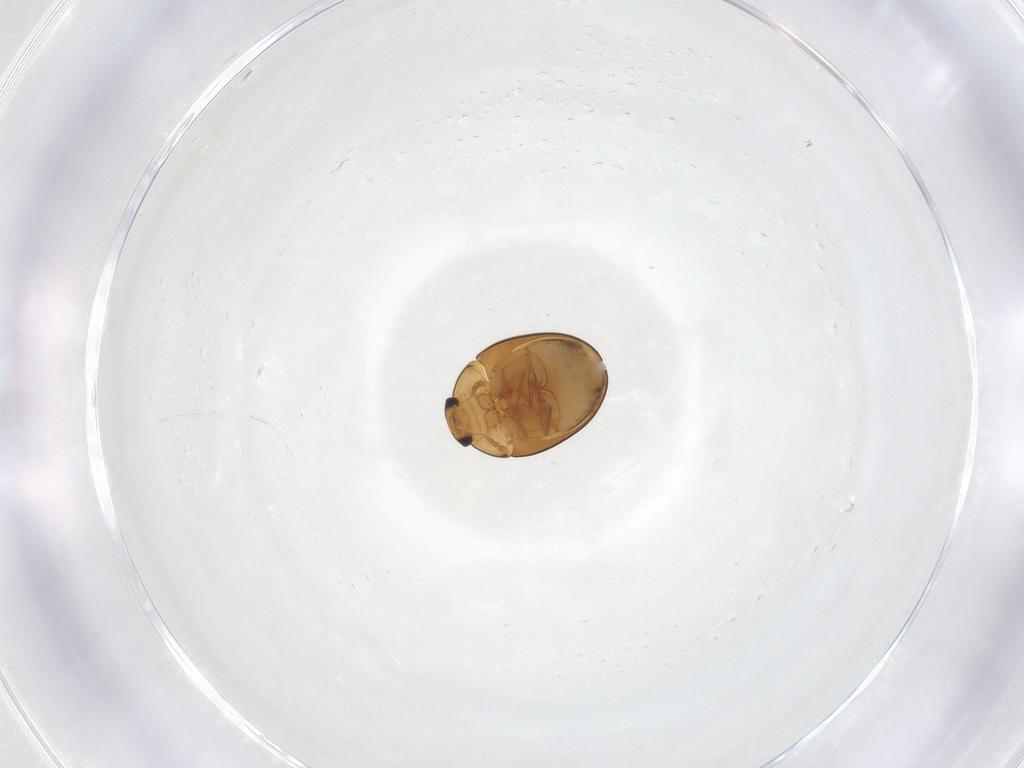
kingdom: Animalia
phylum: Arthropoda
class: Insecta
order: Coleoptera
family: Corylophidae
